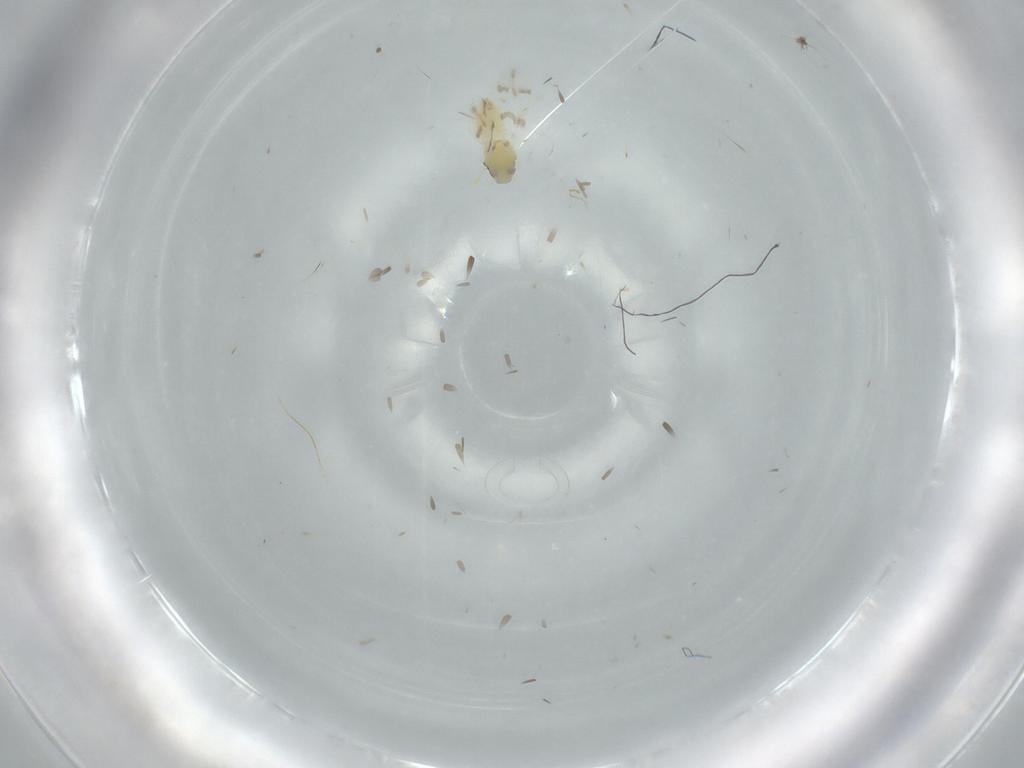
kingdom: Animalia
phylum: Arthropoda
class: Insecta
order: Hemiptera
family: Aleyrodidae
